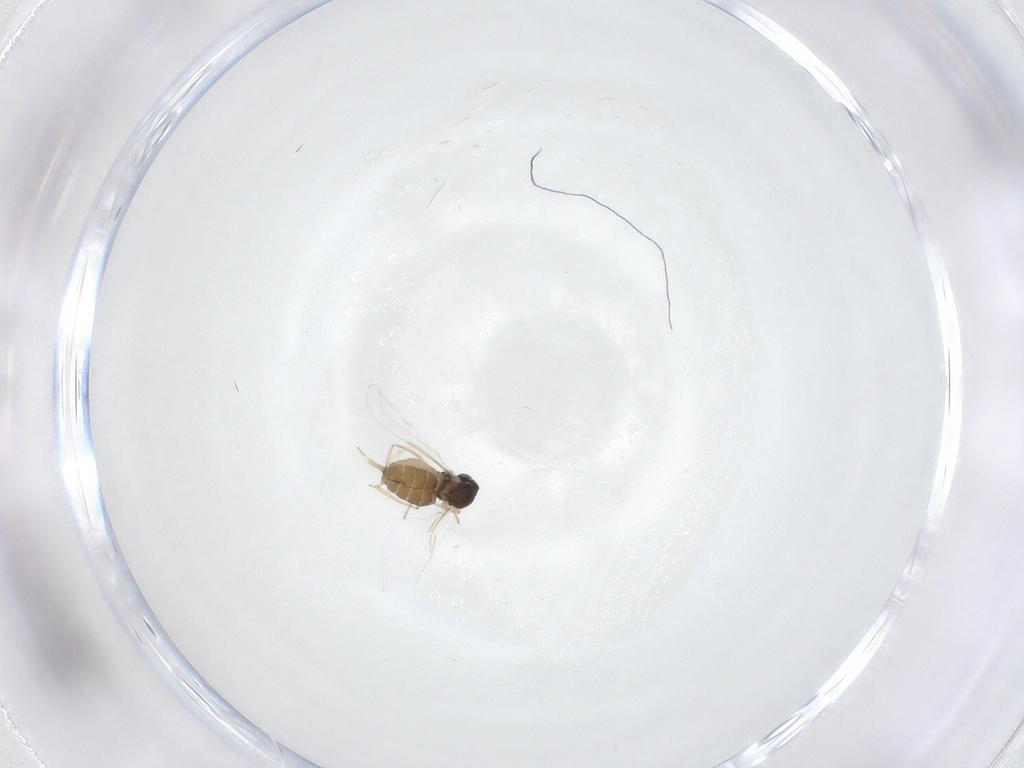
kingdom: Animalia
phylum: Arthropoda
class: Insecta
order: Diptera
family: Cecidomyiidae
